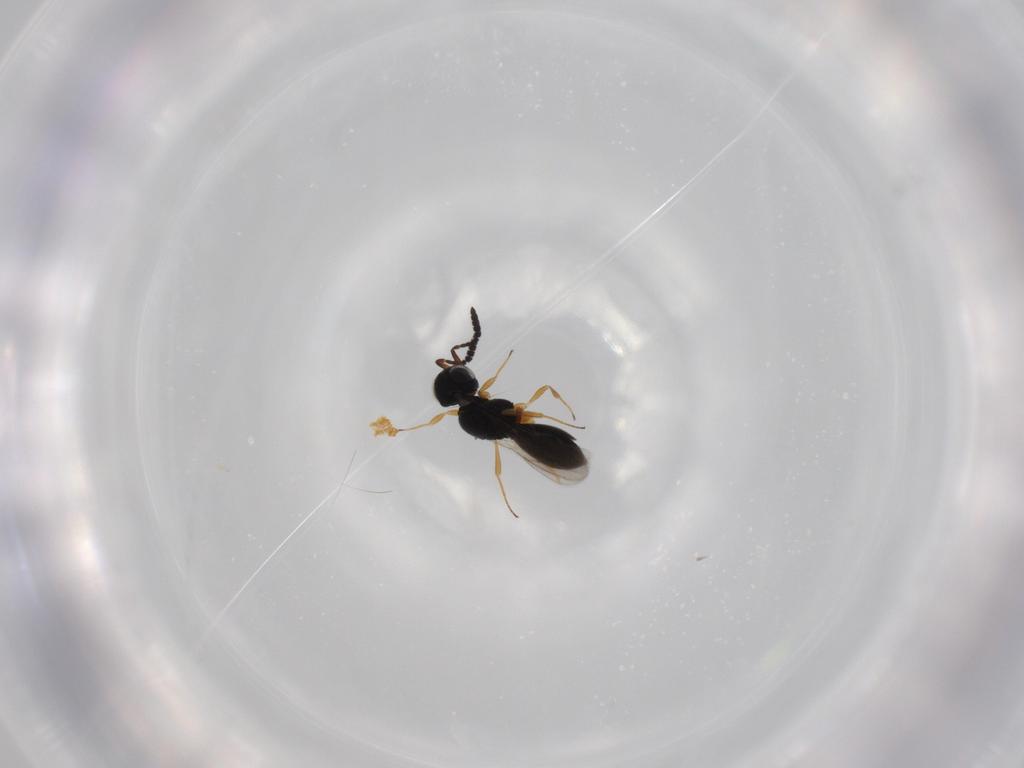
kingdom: Animalia
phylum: Arthropoda
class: Insecta
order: Hymenoptera
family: Scelionidae
